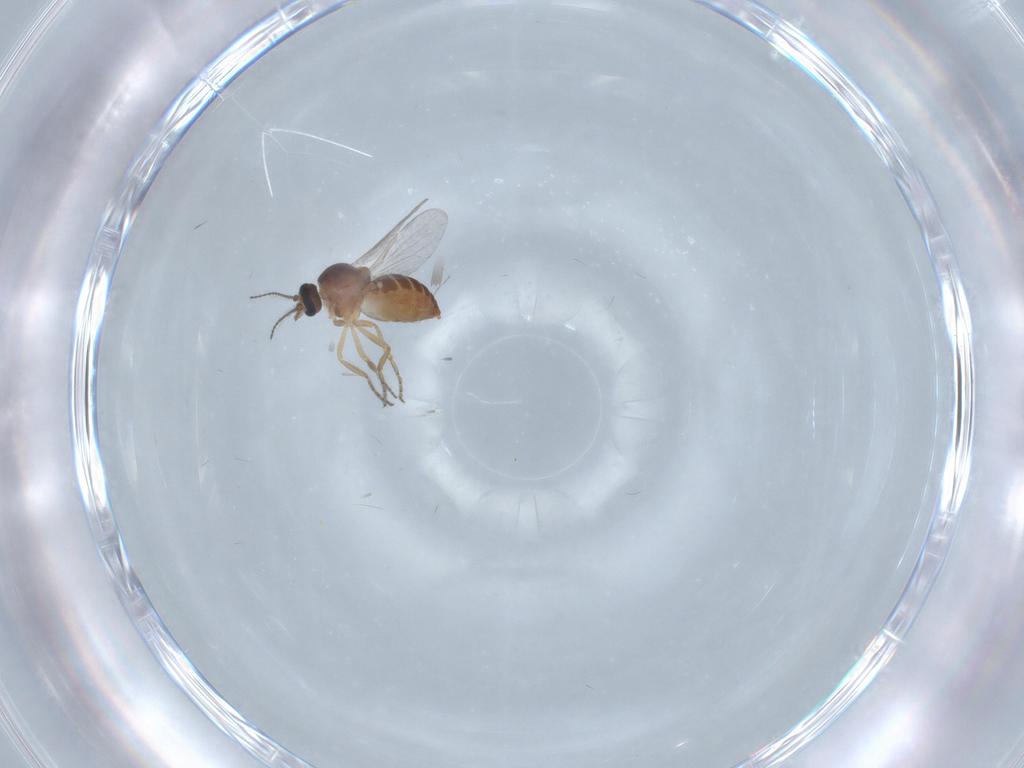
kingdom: Animalia
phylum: Arthropoda
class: Insecta
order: Diptera
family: Ceratopogonidae
